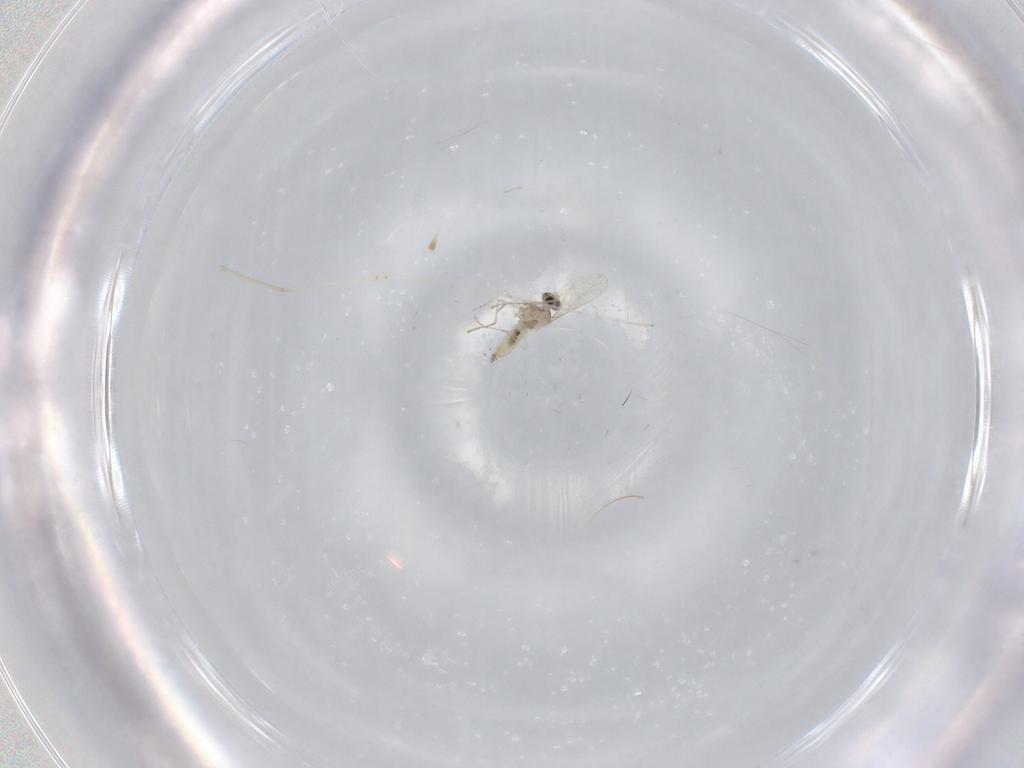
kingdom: Animalia
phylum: Arthropoda
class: Insecta
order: Diptera
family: Cecidomyiidae
